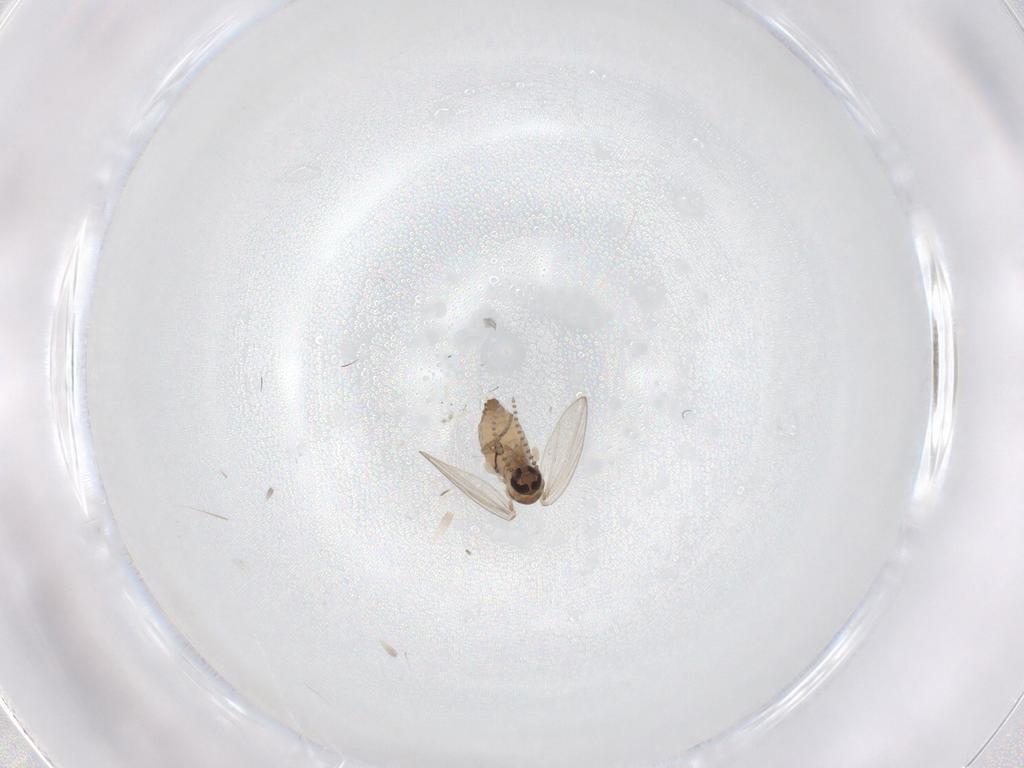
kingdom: Animalia
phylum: Arthropoda
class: Insecta
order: Diptera
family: Psychodidae
